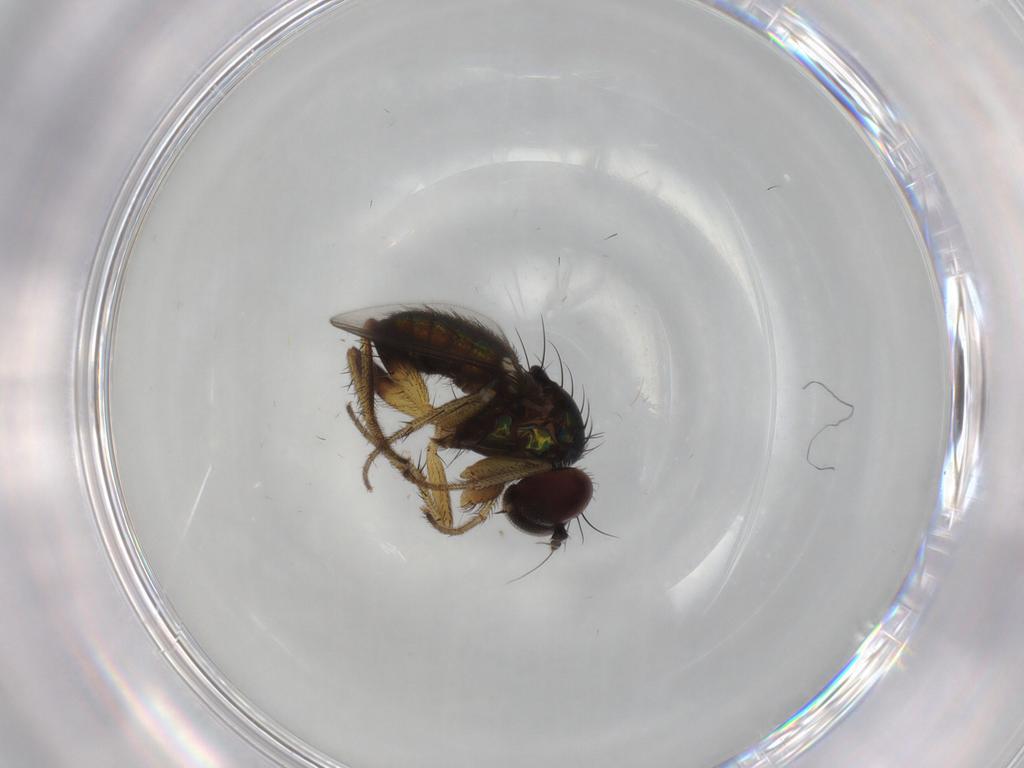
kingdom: Animalia
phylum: Arthropoda
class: Insecta
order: Diptera
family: Dolichopodidae
